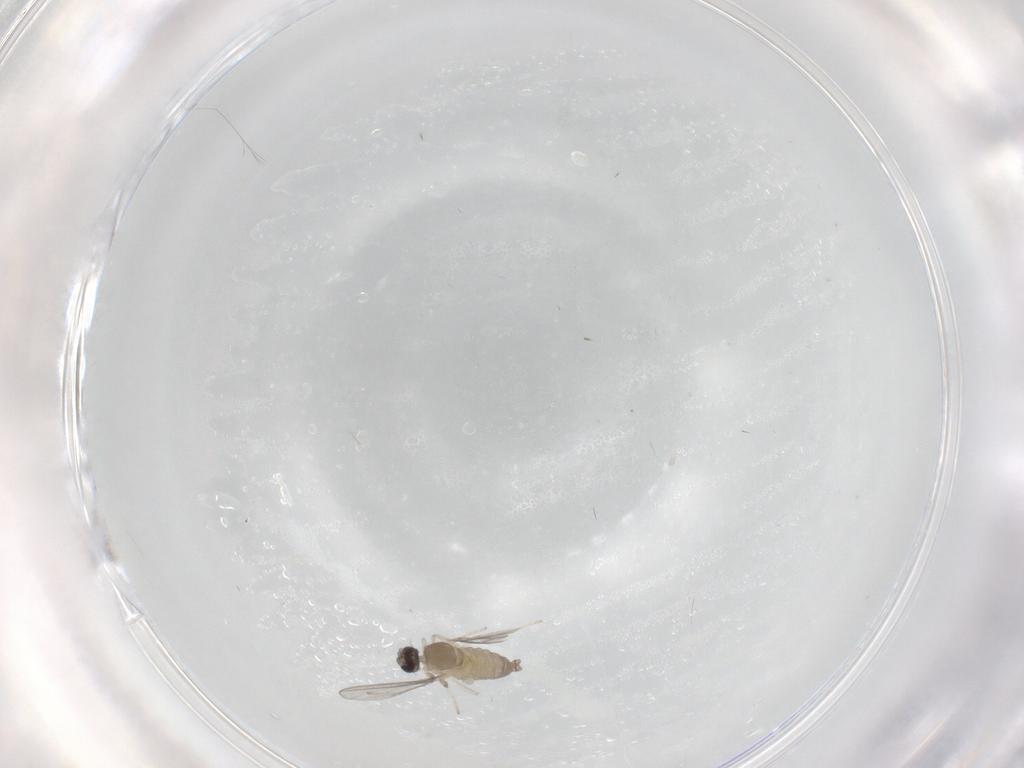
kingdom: Animalia
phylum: Arthropoda
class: Insecta
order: Diptera
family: Cecidomyiidae
